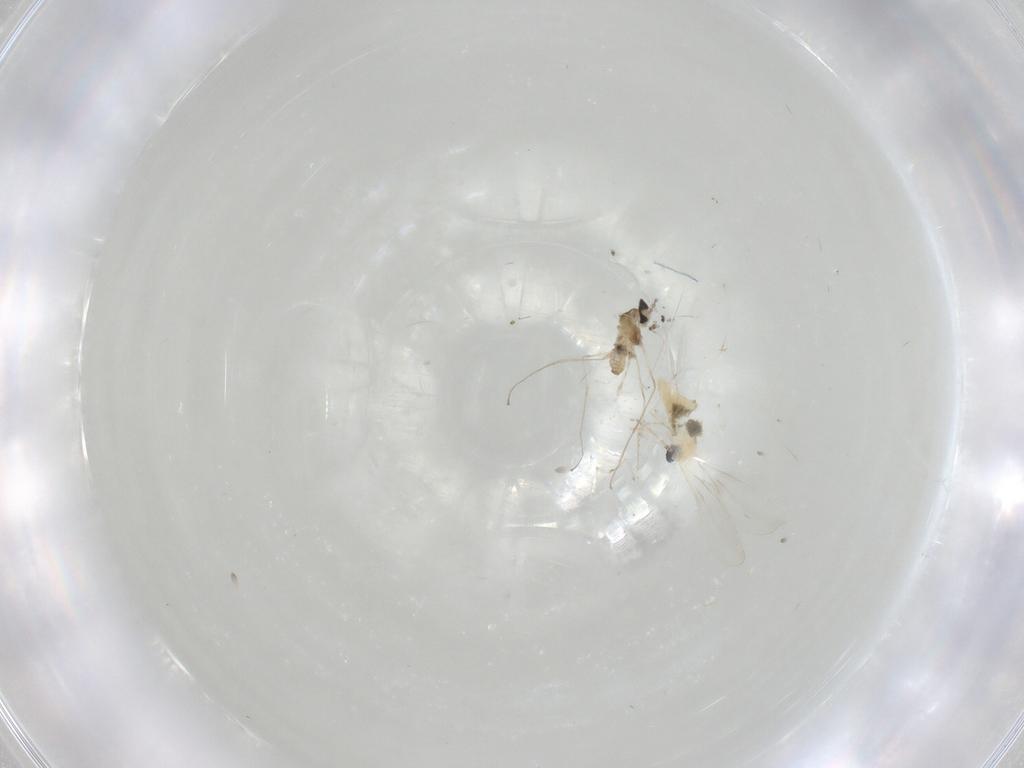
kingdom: Animalia
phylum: Arthropoda
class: Insecta
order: Diptera
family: Cecidomyiidae
